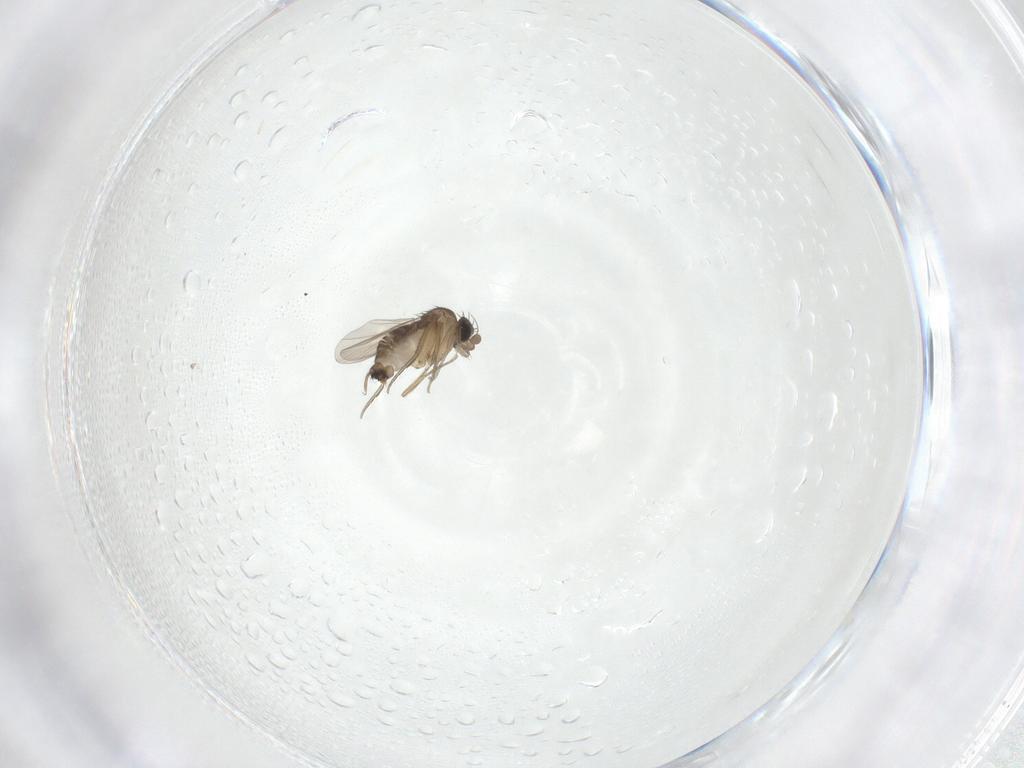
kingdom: Animalia
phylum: Arthropoda
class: Insecta
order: Diptera
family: Phoridae
